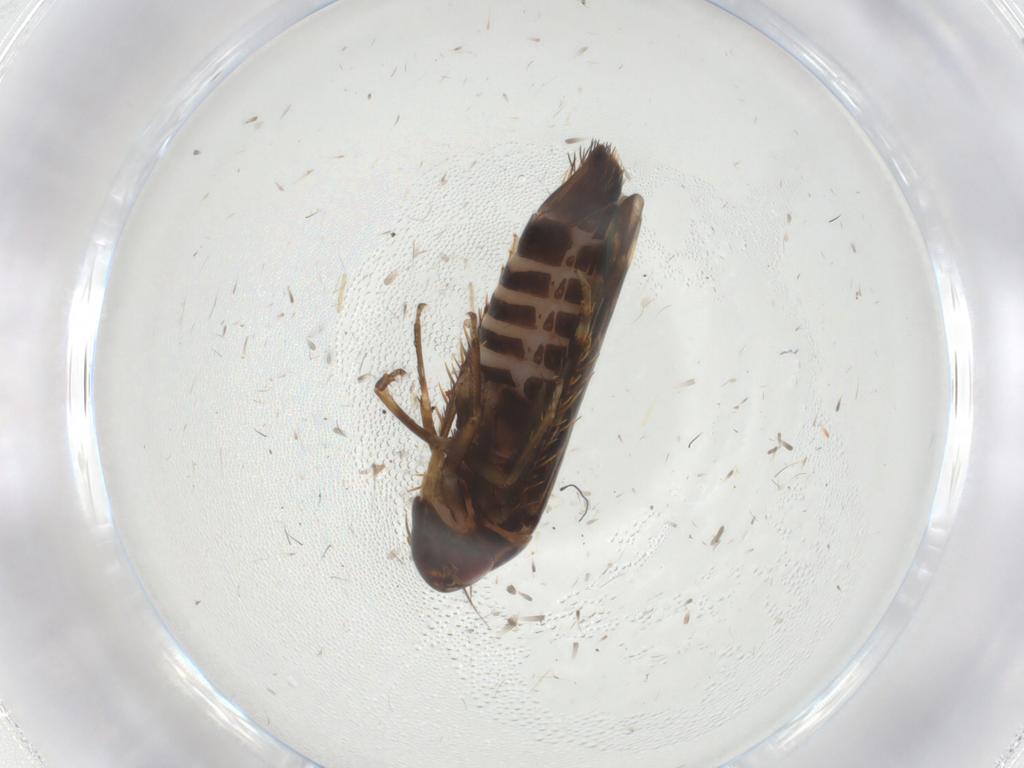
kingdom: Animalia
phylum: Arthropoda
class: Insecta
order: Hemiptera
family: Cicadellidae
